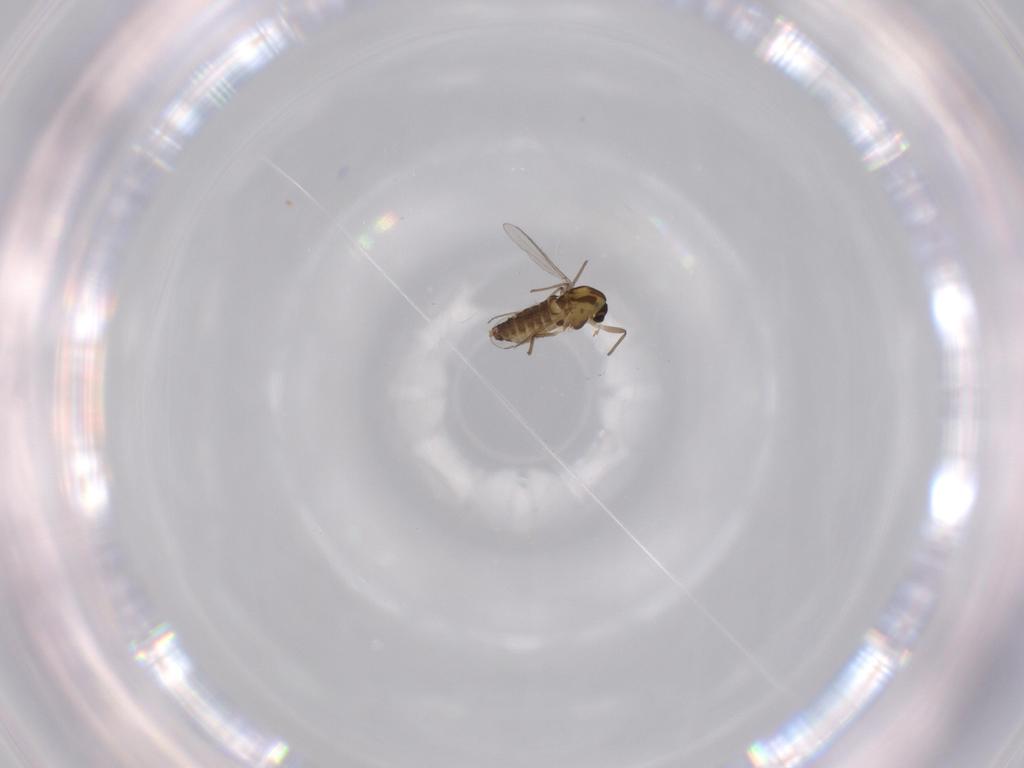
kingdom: Animalia
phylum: Arthropoda
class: Insecta
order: Diptera
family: Chironomidae
